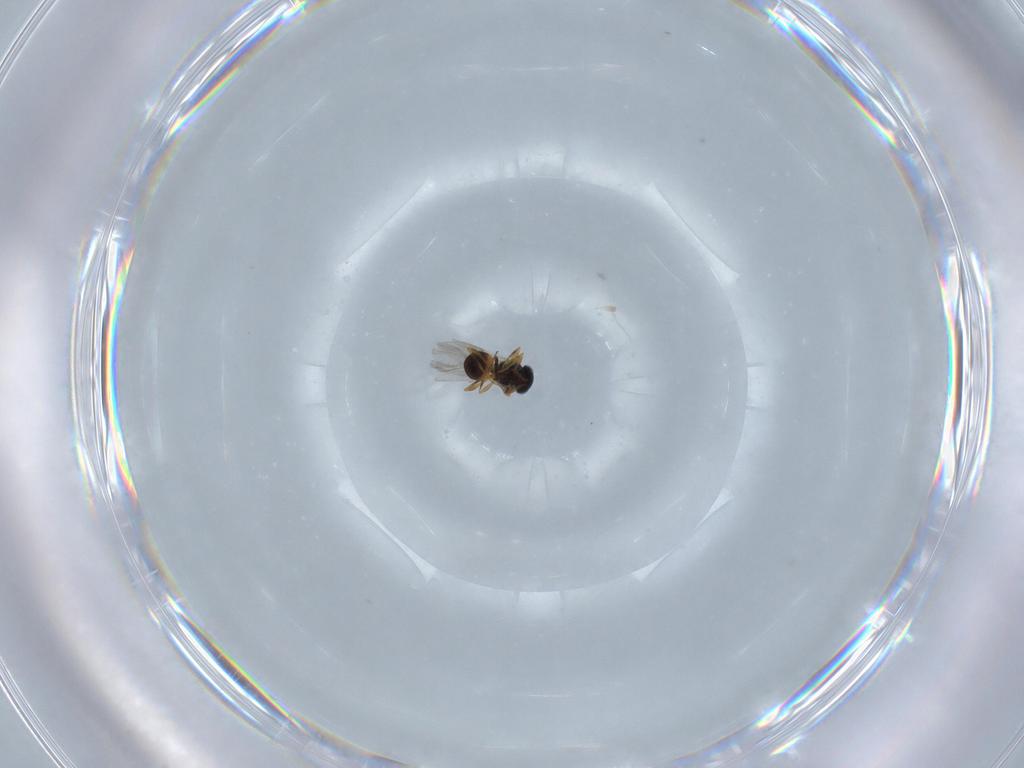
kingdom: Animalia
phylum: Arthropoda
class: Insecta
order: Hymenoptera
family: Platygastridae
